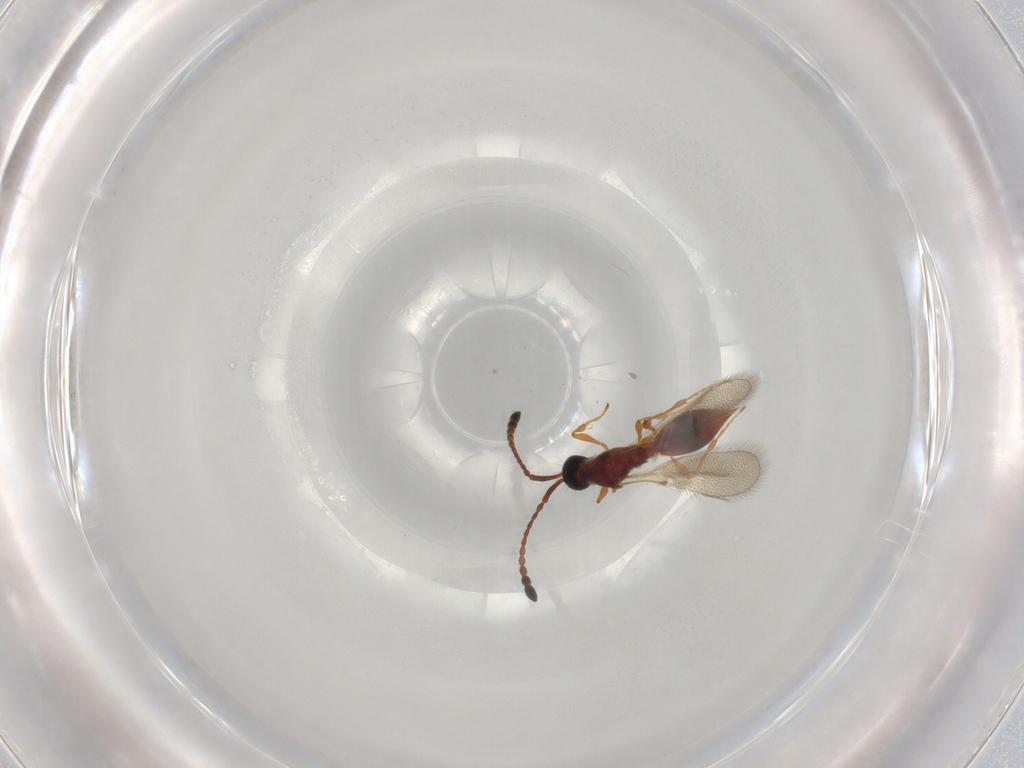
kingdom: Animalia
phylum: Arthropoda
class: Insecta
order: Hymenoptera
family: Diapriidae
